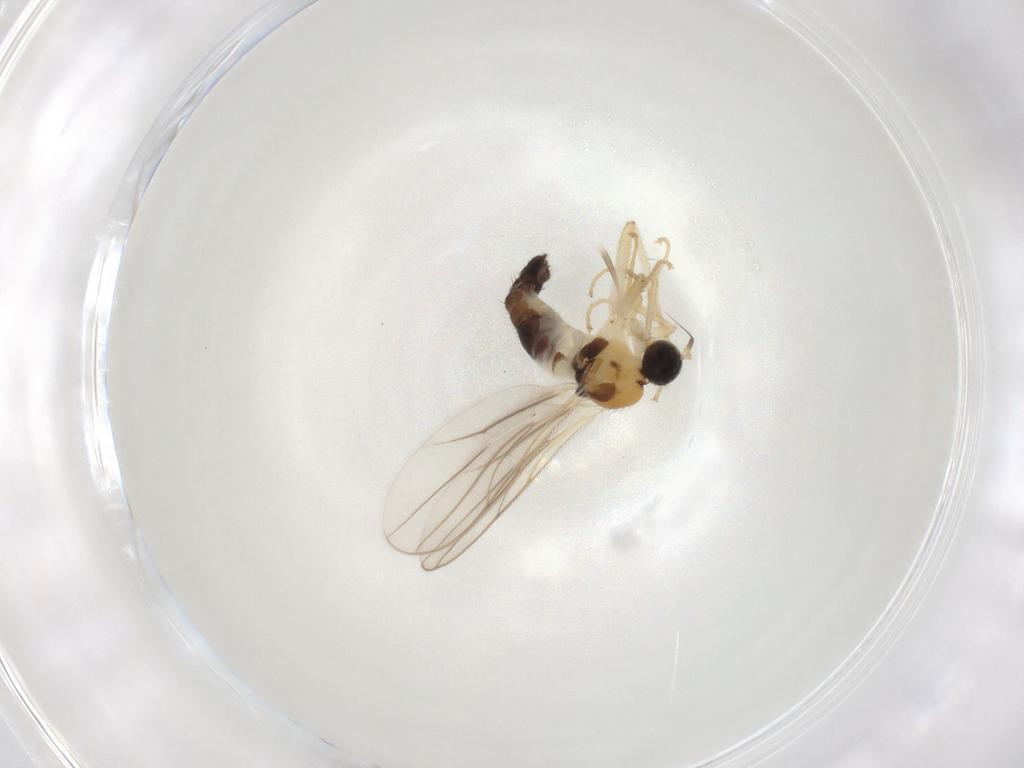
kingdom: Animalia
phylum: Arthropoda
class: Insecta
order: Diptera
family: Hybotidae
